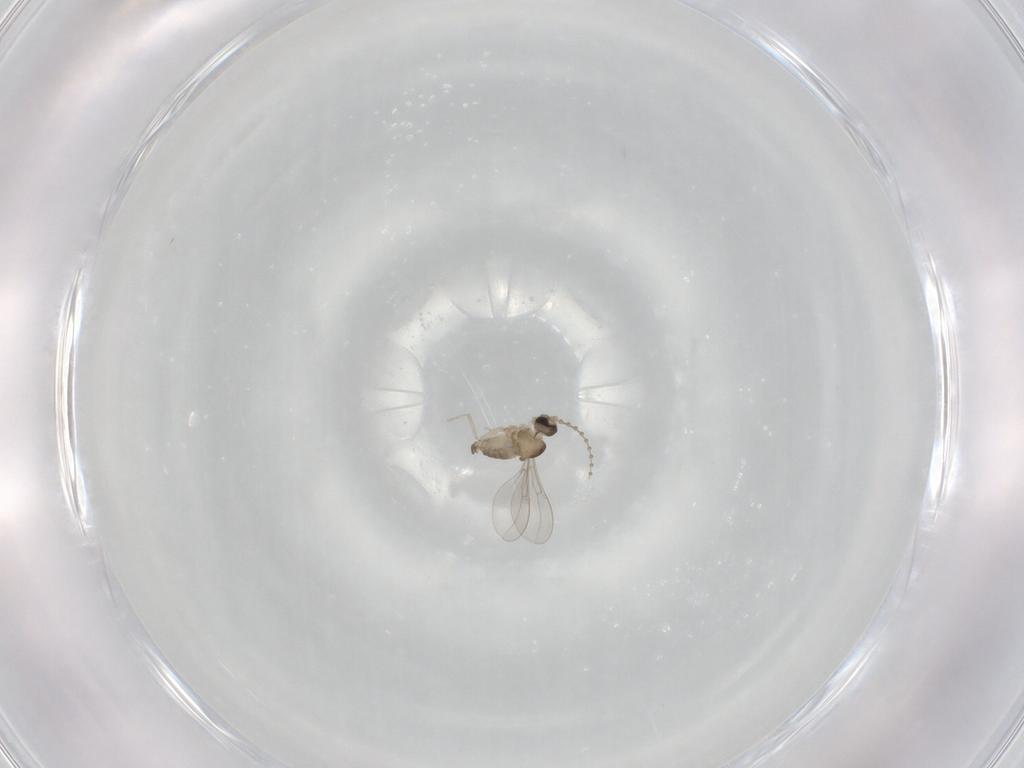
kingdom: Animalia
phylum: Arthropoda
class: Insecta
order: Diptera
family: Cecidomyiidae
